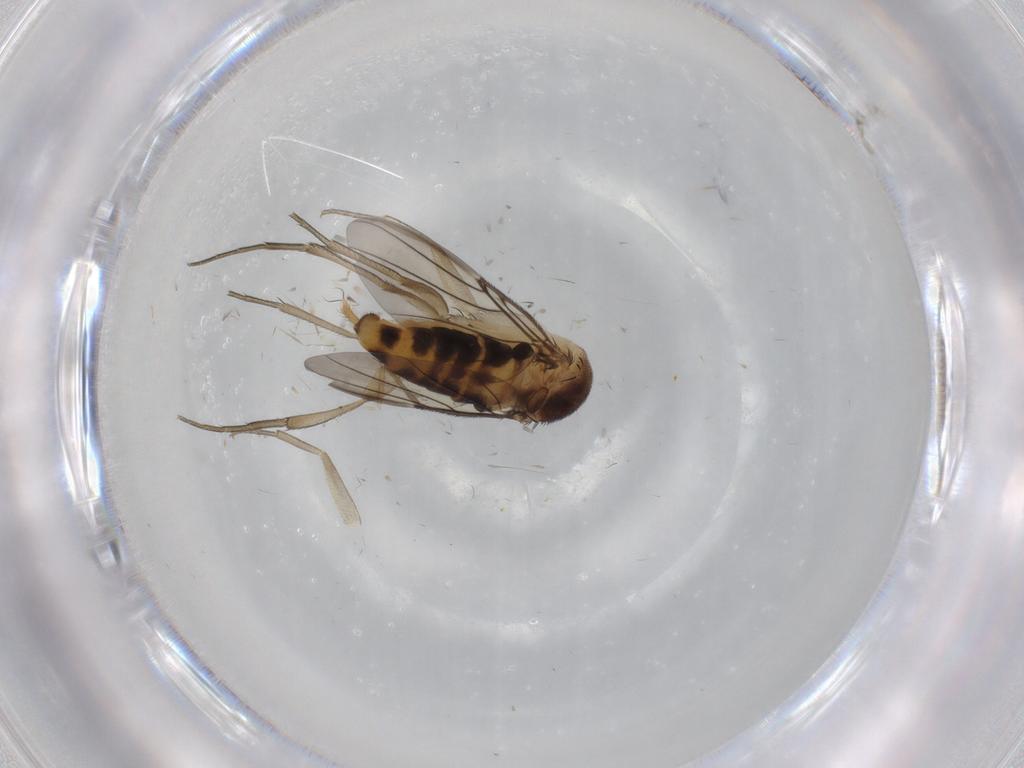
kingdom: Animalia
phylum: Arthropoda
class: Insecta
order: Diptera
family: Phoridae
